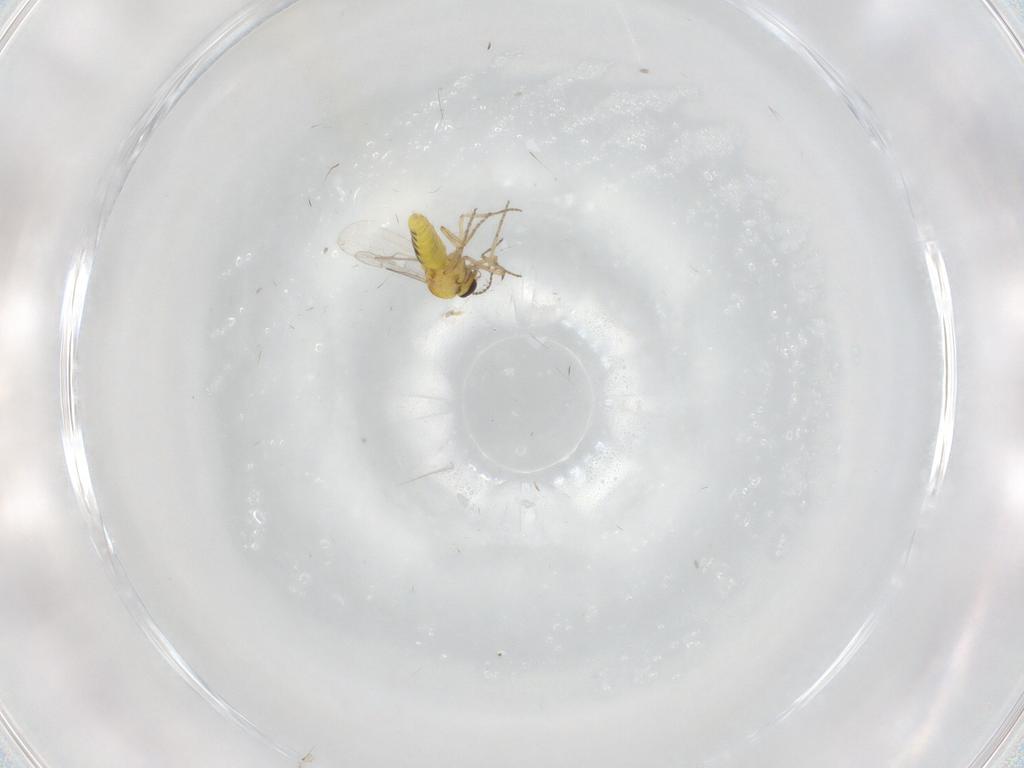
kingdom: Animalia
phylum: Arthropoda
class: Insecta
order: Diptera
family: Ceratopogonidae
